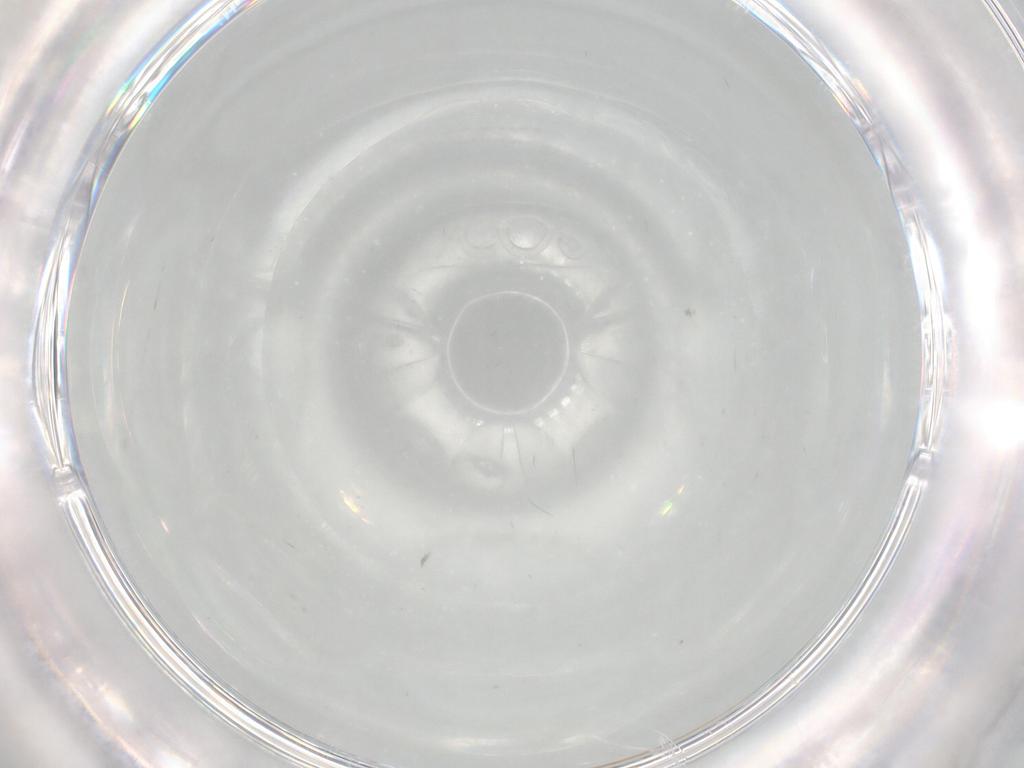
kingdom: Animalia
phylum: Arthropoda
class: Insecta
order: Diptera
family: Chironomidae
